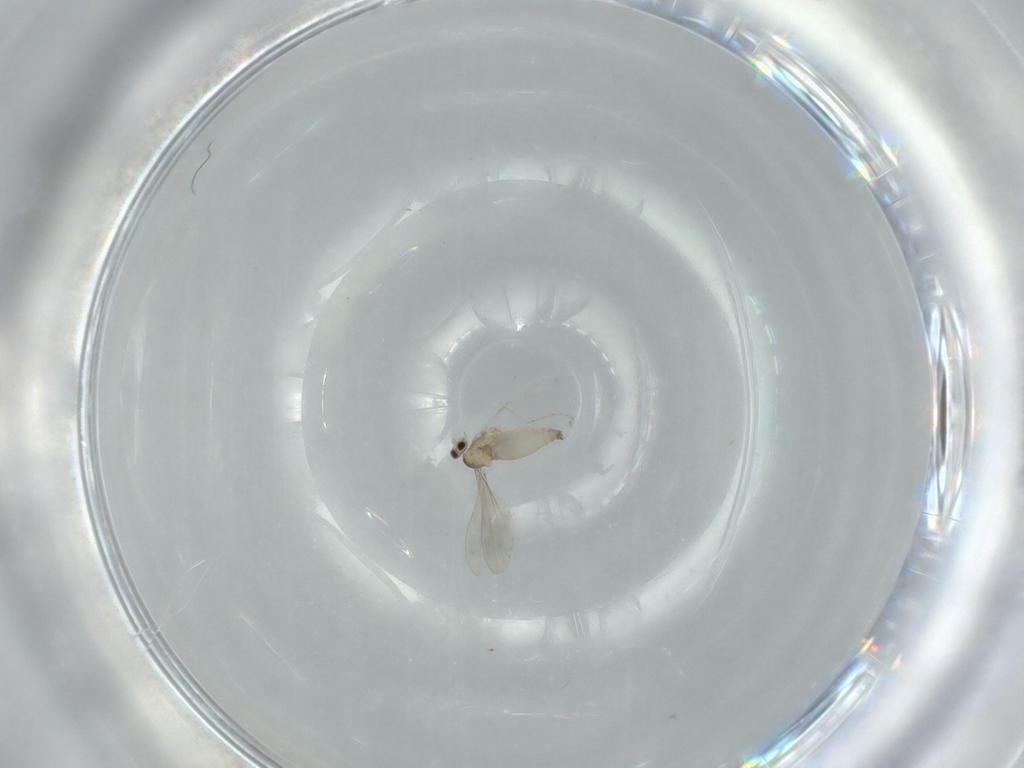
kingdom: Animalia
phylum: Arthropoda
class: Insecta
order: Diptera
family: Cecidomyiidae
